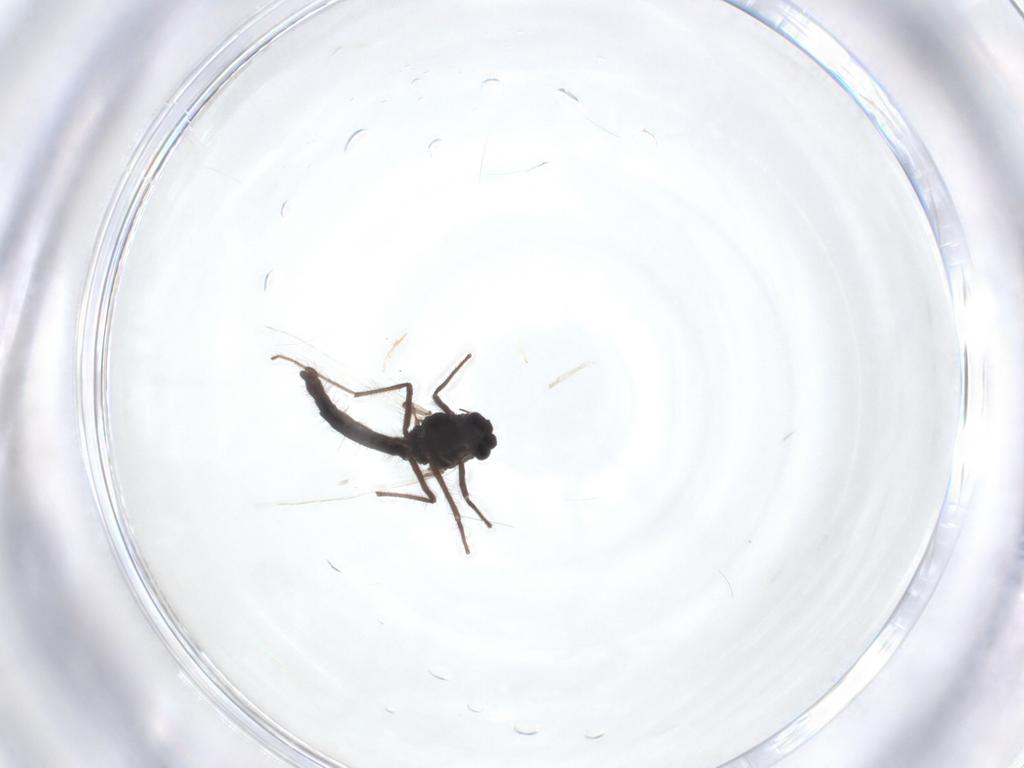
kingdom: Animalia
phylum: Arthropoda
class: Insecta
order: Diptera
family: Chironomidae
